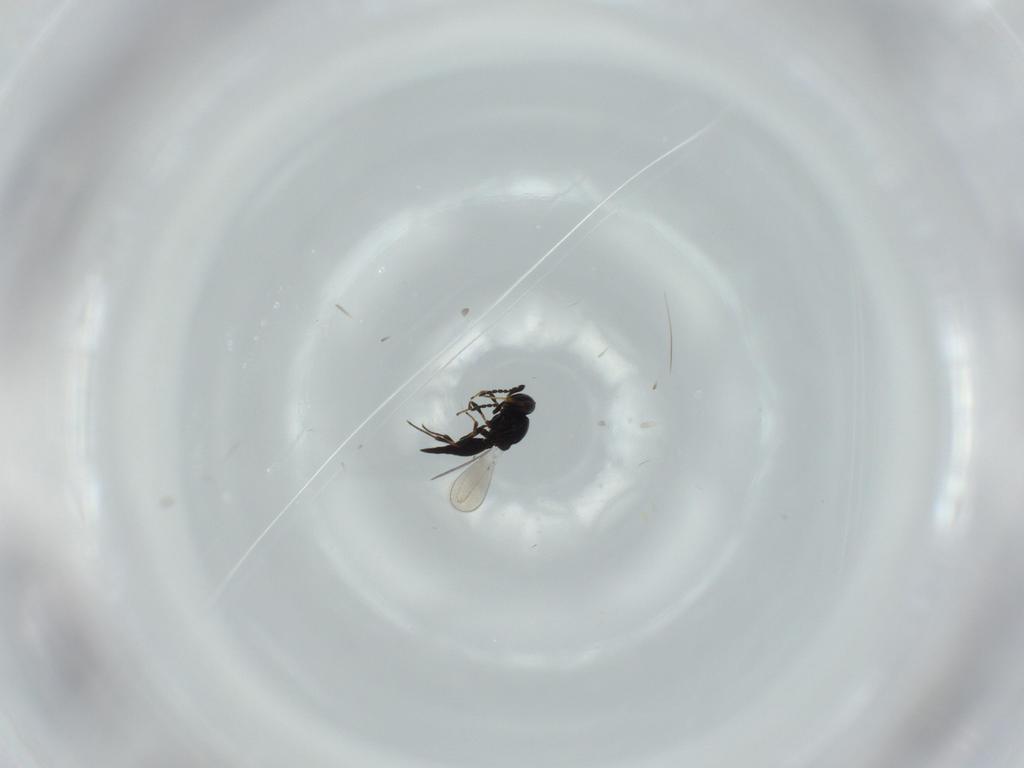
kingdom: Animalia
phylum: Arthropoda
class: Insecta
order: Hymenoptera
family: Platygastridae
